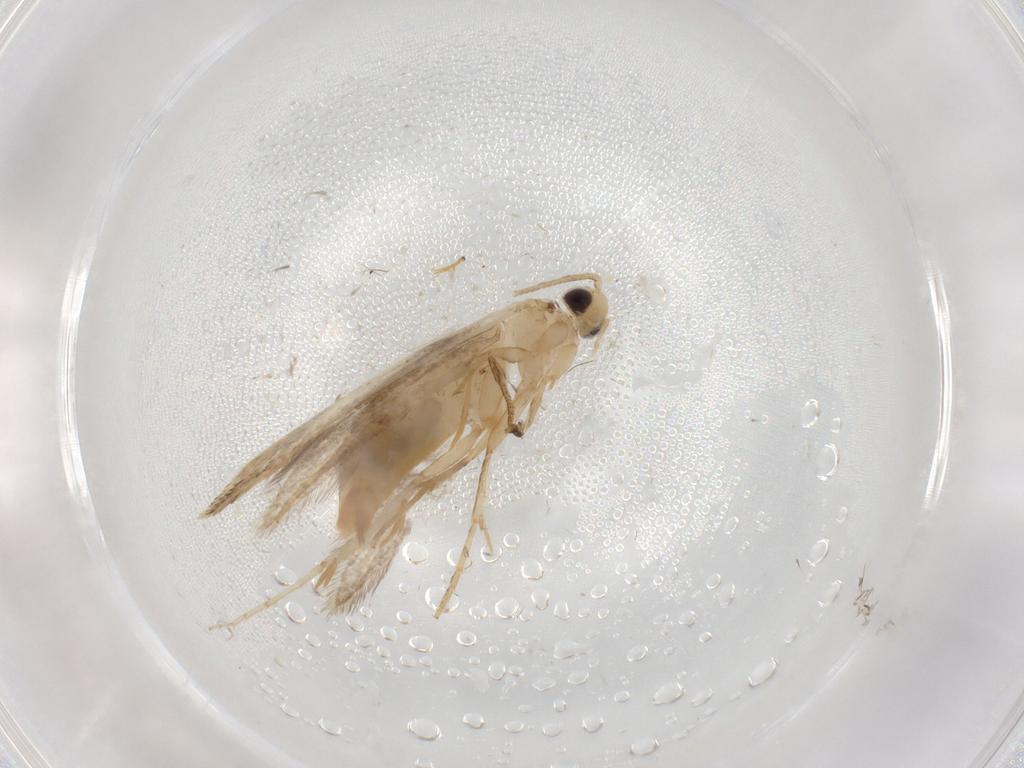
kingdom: Animalia
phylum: Arthropoda
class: Insecta
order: Lepidoptera
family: Tineidae
